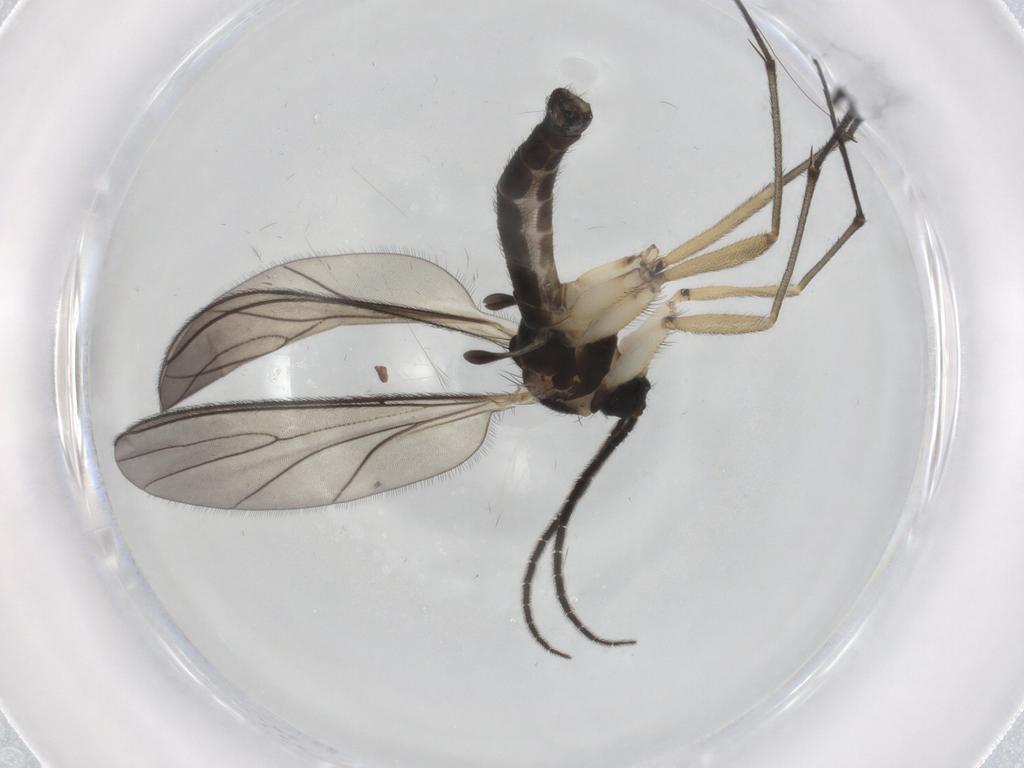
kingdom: Animalia
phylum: Arthropoda
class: Insecta
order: Diptera
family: Sciaridae
